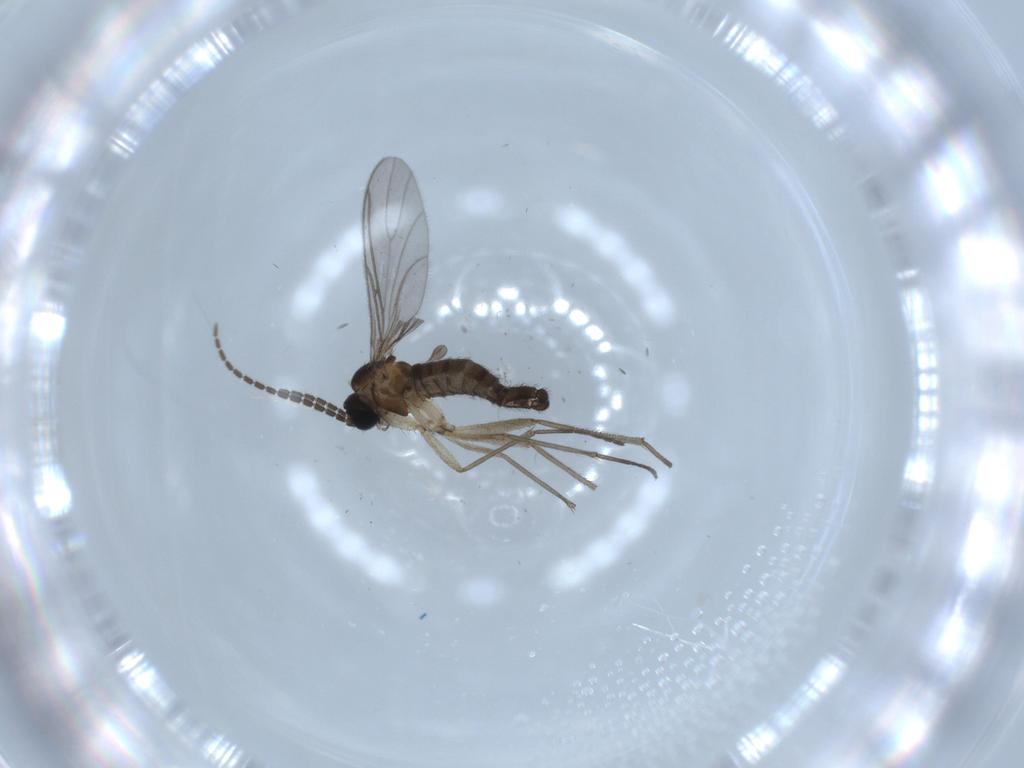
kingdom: Animalia
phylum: Arthropoda
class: Insecta
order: Diptera
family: Sciaridae
